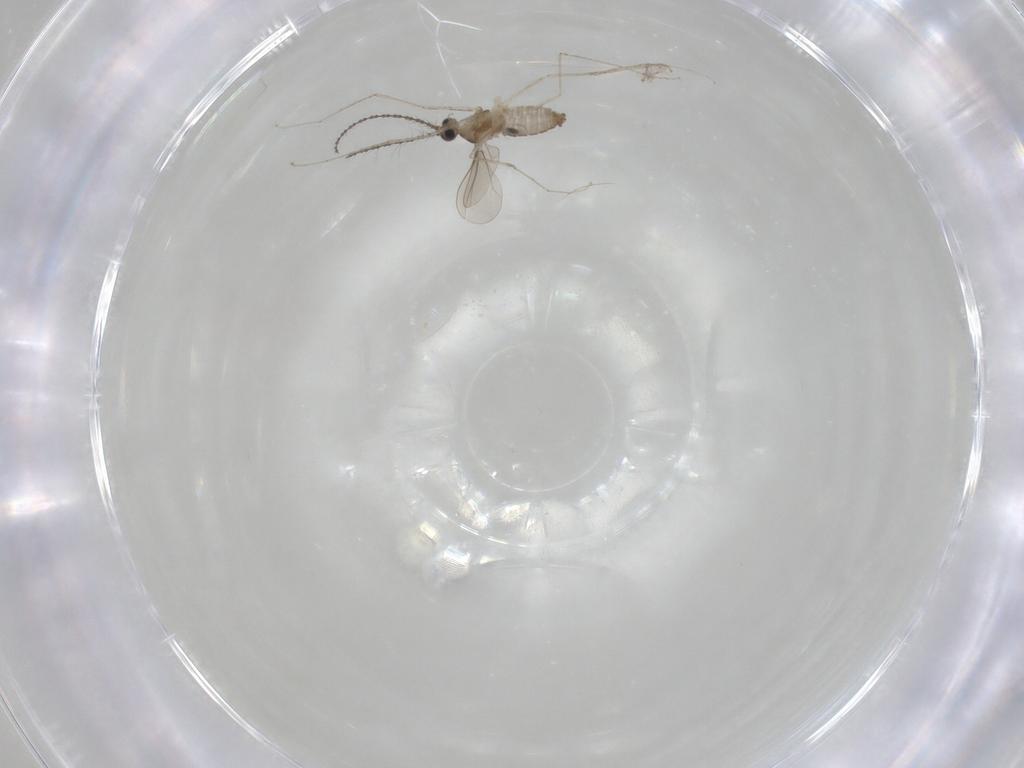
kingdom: Animalia
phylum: Arthropoda
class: Insecta
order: Diptera
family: Cecidomyiidae
